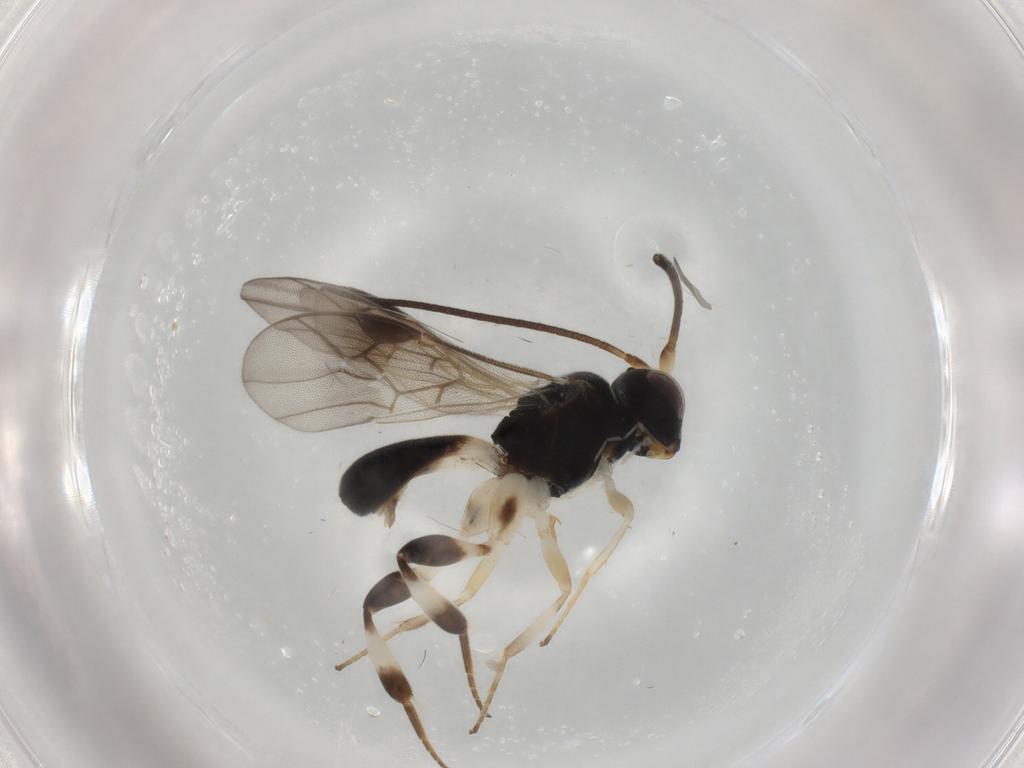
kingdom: Animalia
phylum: Arthropoda
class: Insecta
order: Hymenoptera
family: Braconidae
